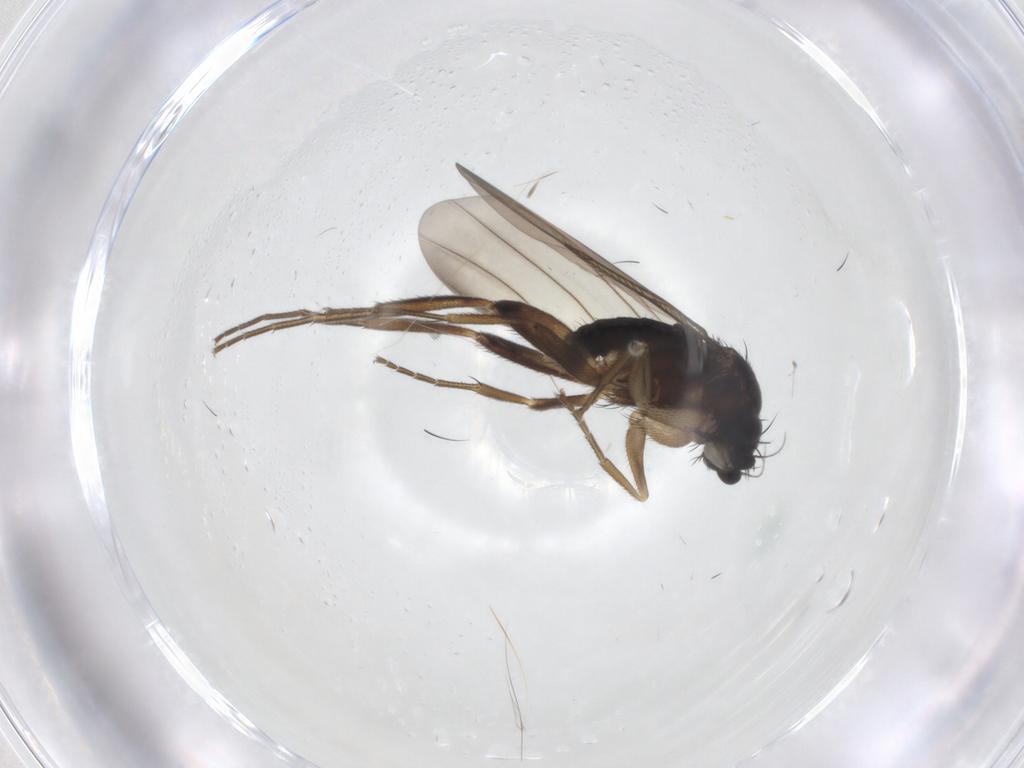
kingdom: Animalia
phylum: Arthropoda
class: Insecta
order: Diptera
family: Phoridae
